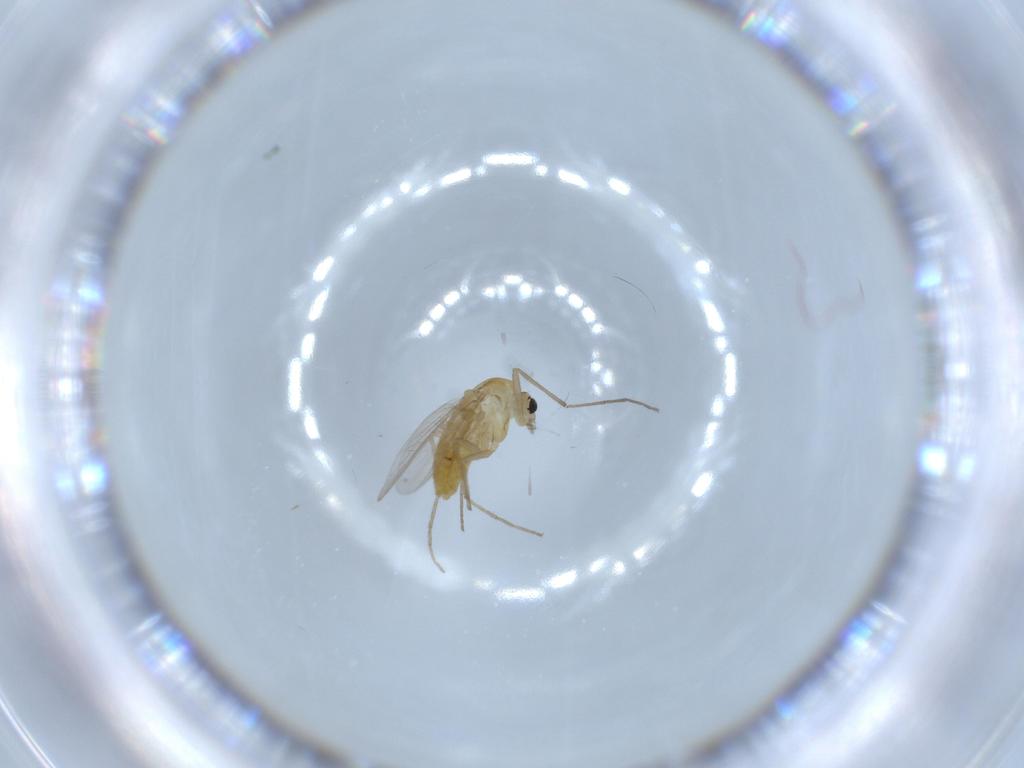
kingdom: Animalia
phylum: Arthropoda
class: Insecta
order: Diptera
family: Chironomidae
